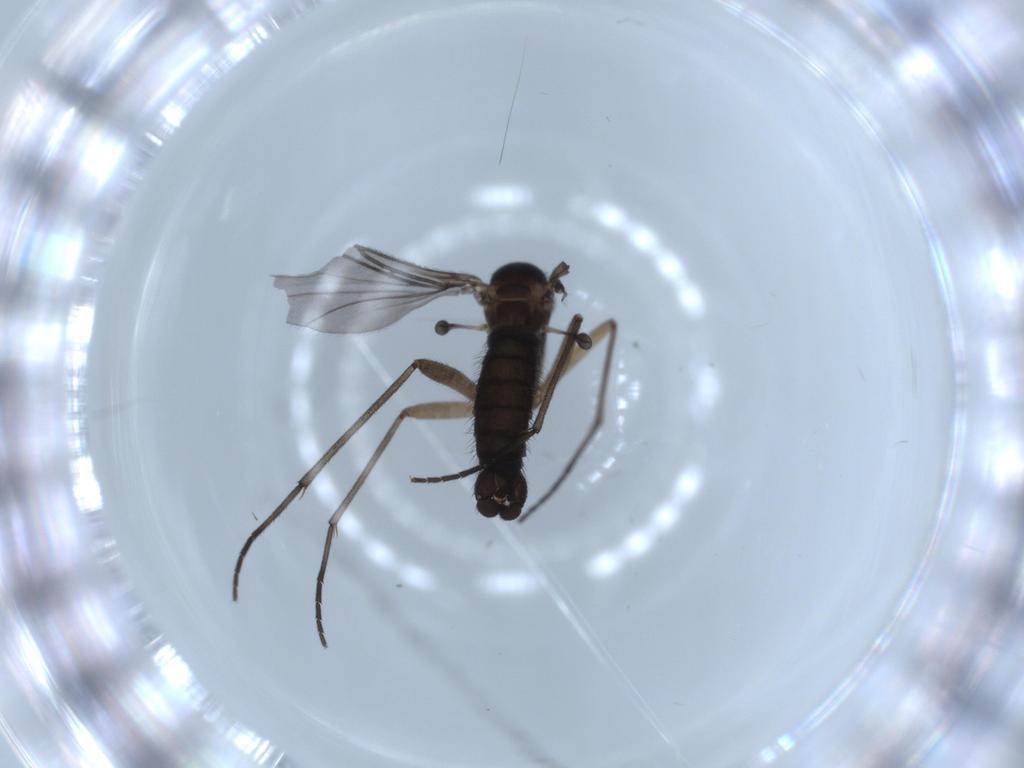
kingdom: Animalia
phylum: Arthropoda
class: Insecta
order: Diptera
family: Sciaridae
